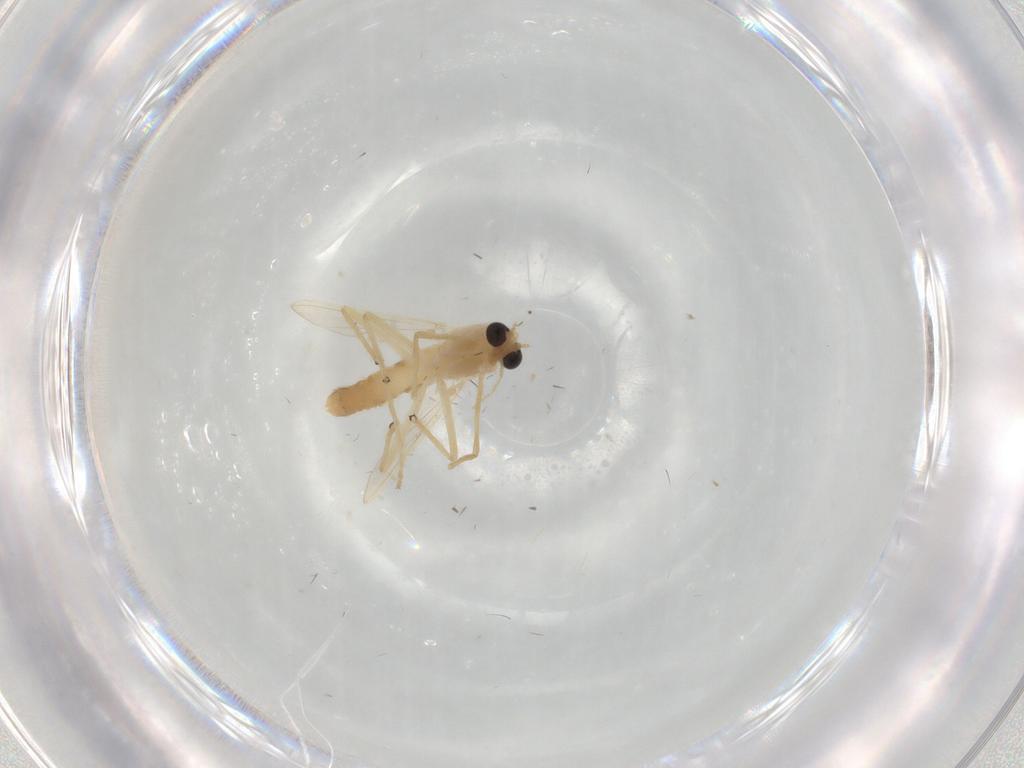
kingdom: Animalia
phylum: Arthropoda
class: Insecta
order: Diptera
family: Chironomidae
